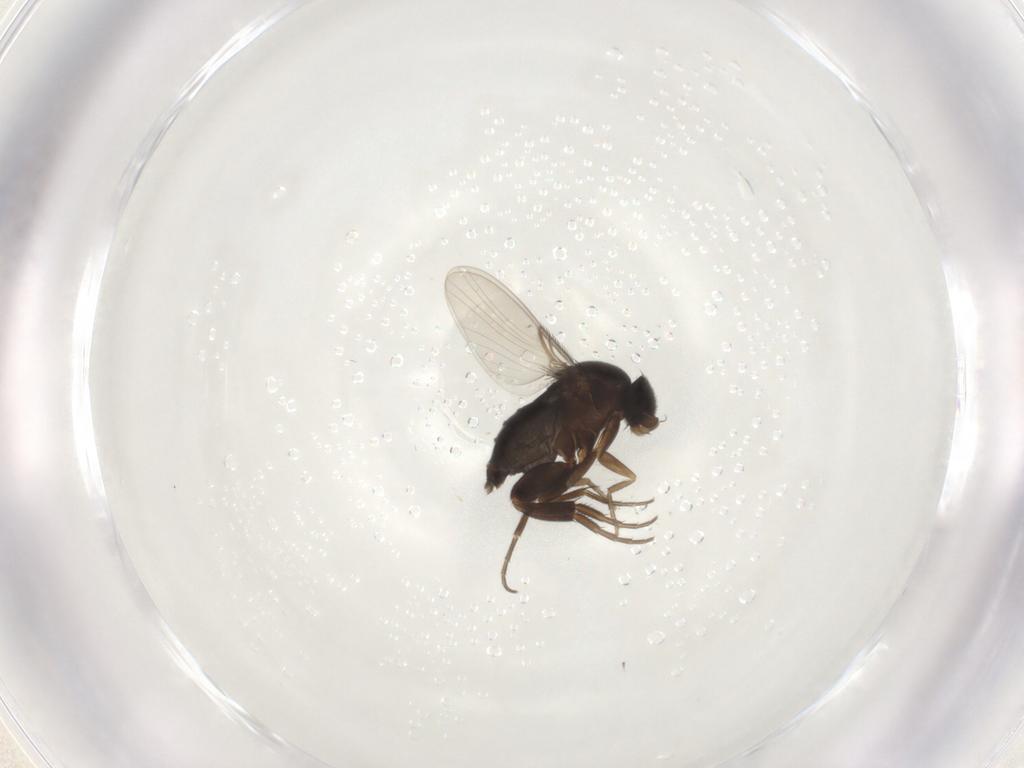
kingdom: Animalia
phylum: Arthropoda
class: Insecta
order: Diptera
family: Phoridae
